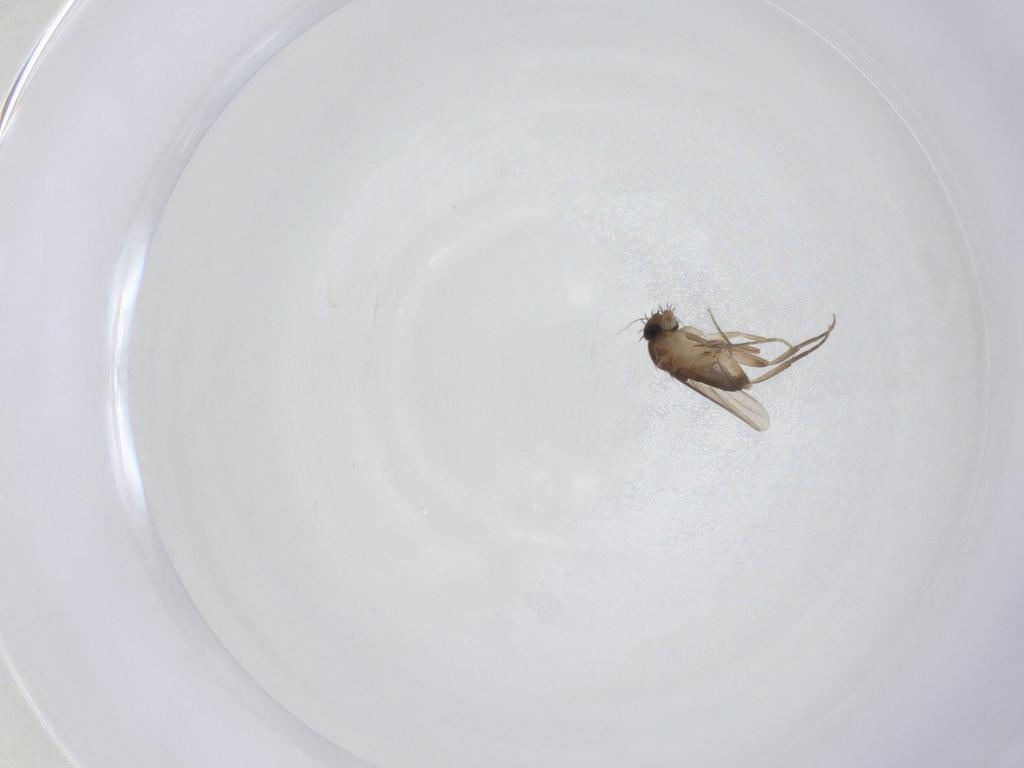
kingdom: Animalia
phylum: Arthropoda
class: Insecta
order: Diptera
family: Phoridae
